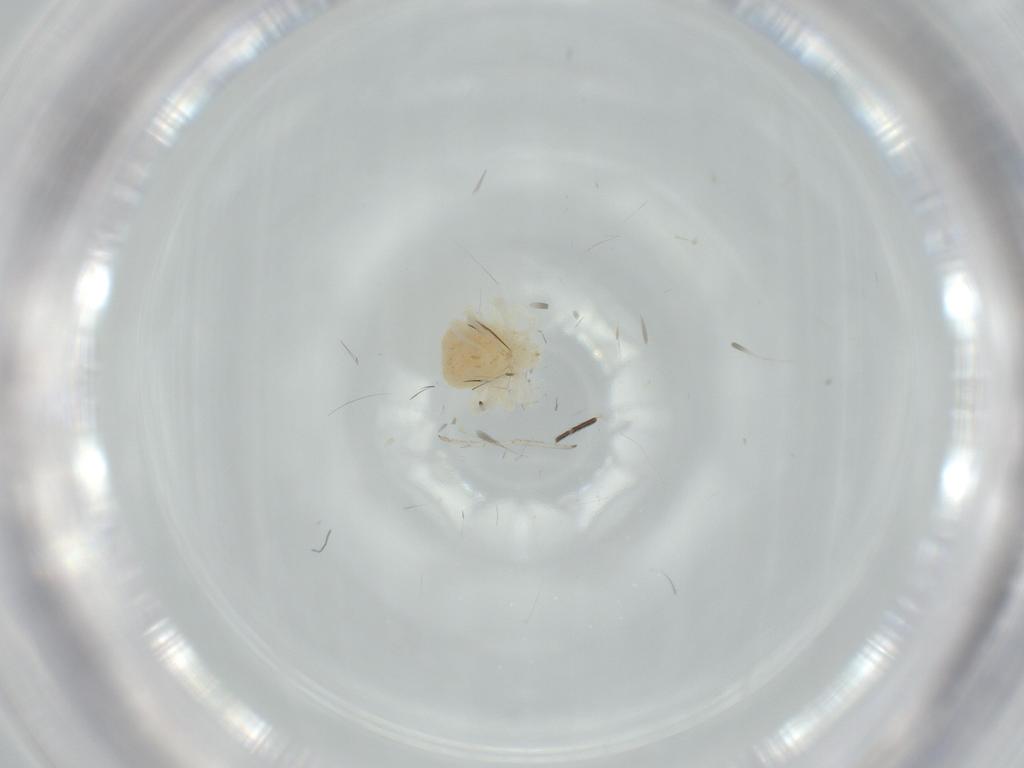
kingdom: Animalia
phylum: Arthropoda
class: Arachnida
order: Trombidiformes
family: Anystidae
